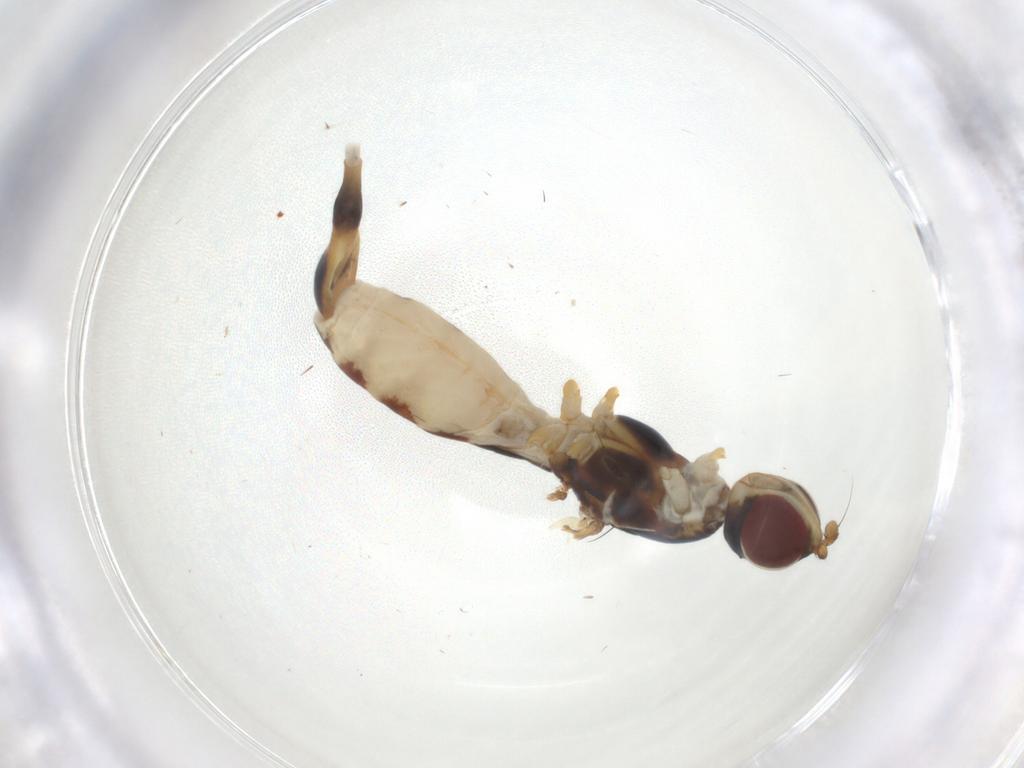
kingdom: Animalia
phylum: Arthropoda
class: Insecta
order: Diptera
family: Micropezidae
